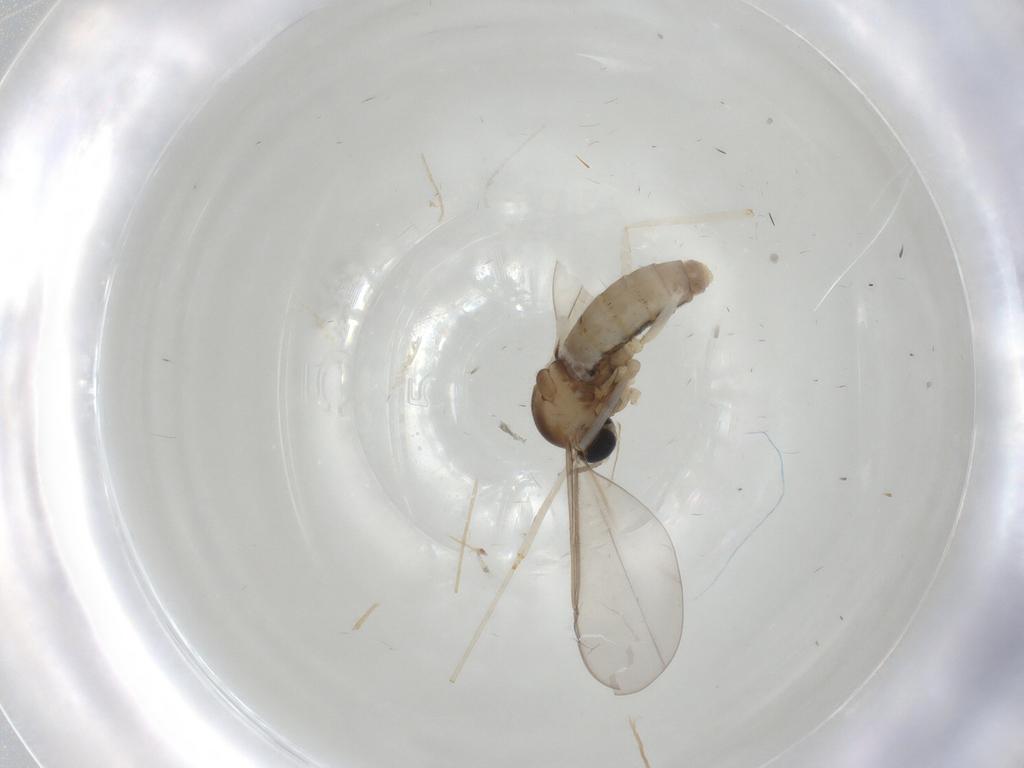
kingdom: Animalia
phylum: Arthropoda
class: Insecta
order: Diptera
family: Cecidomyiidae
